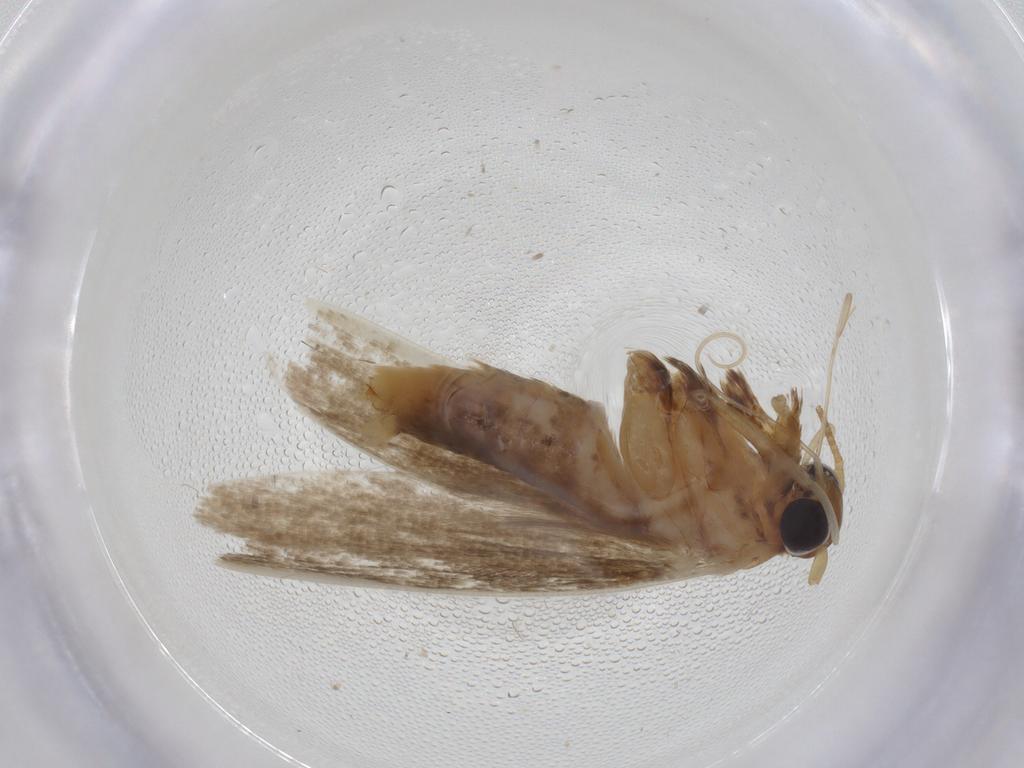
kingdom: Animalia
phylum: Arthropoda
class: Insecta
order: Lepidoptera
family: Blastobasidae
